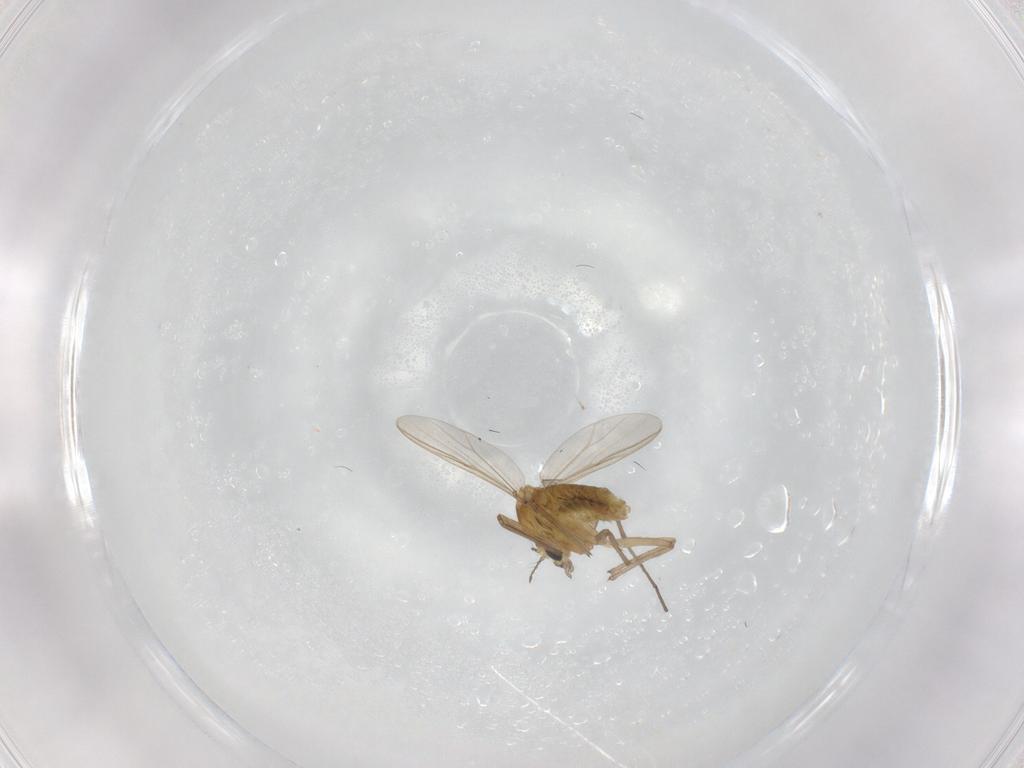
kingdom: Animalia
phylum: Arthropoda
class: Insecta
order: Diptera
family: Chironomidae
